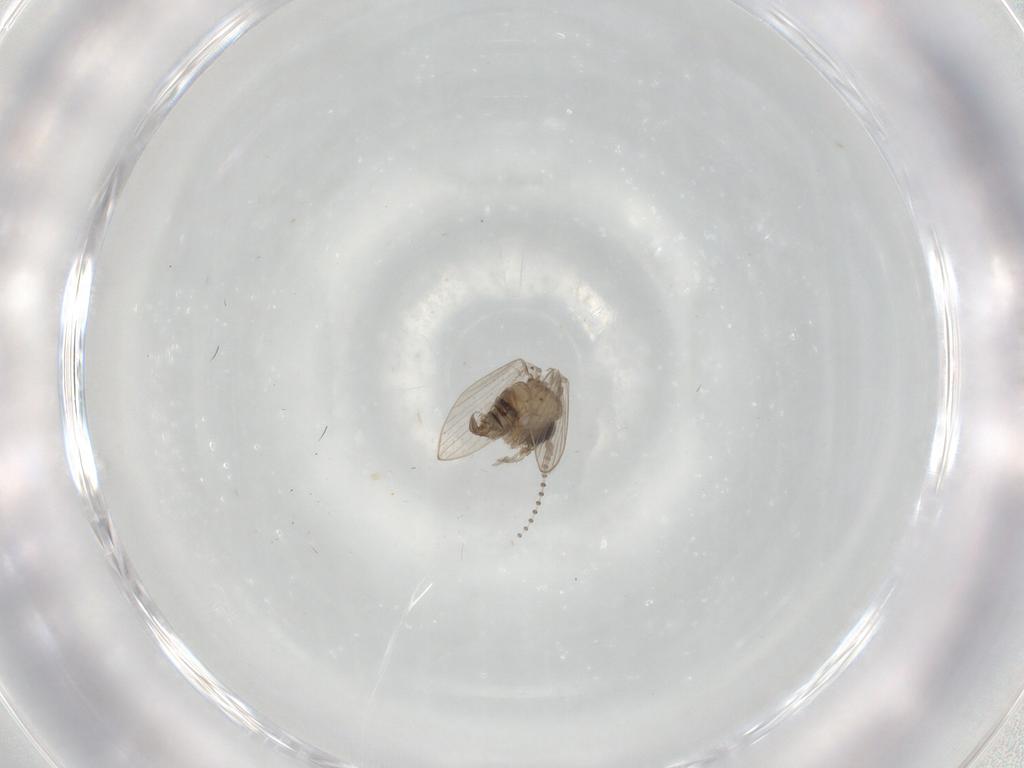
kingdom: Animalia
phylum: Arthropoda
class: Insecta
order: Diptera
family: Psychodidae
